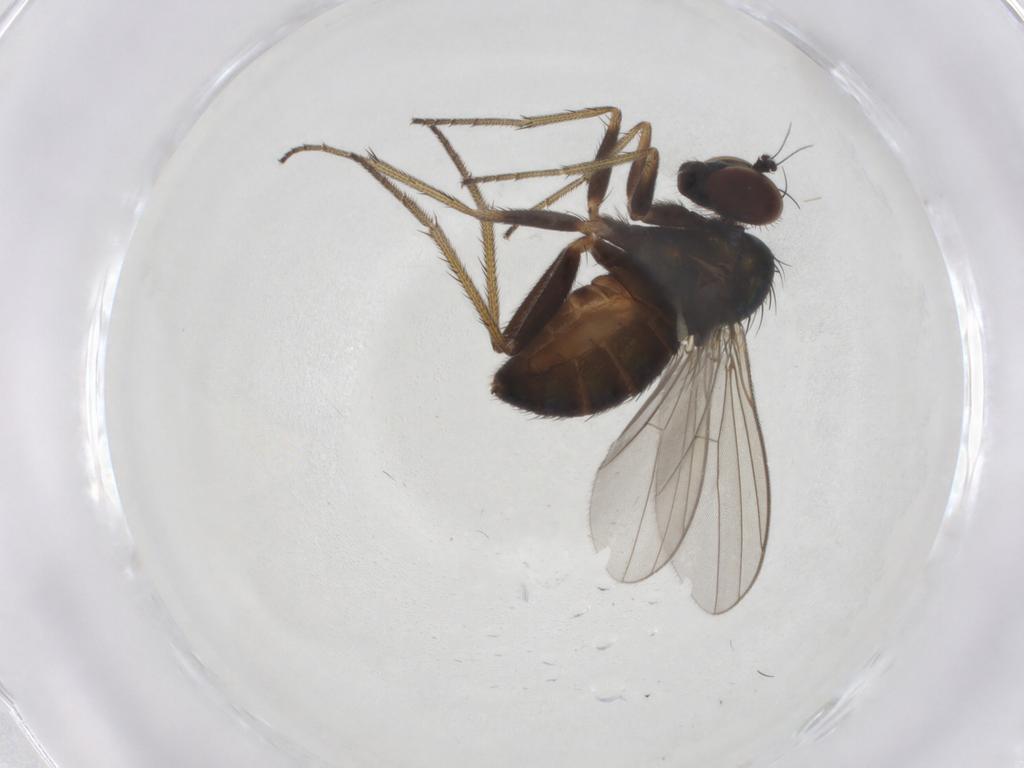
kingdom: Animalia
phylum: Arthropoda
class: Insecta
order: Diptera
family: Dolichopodidae
